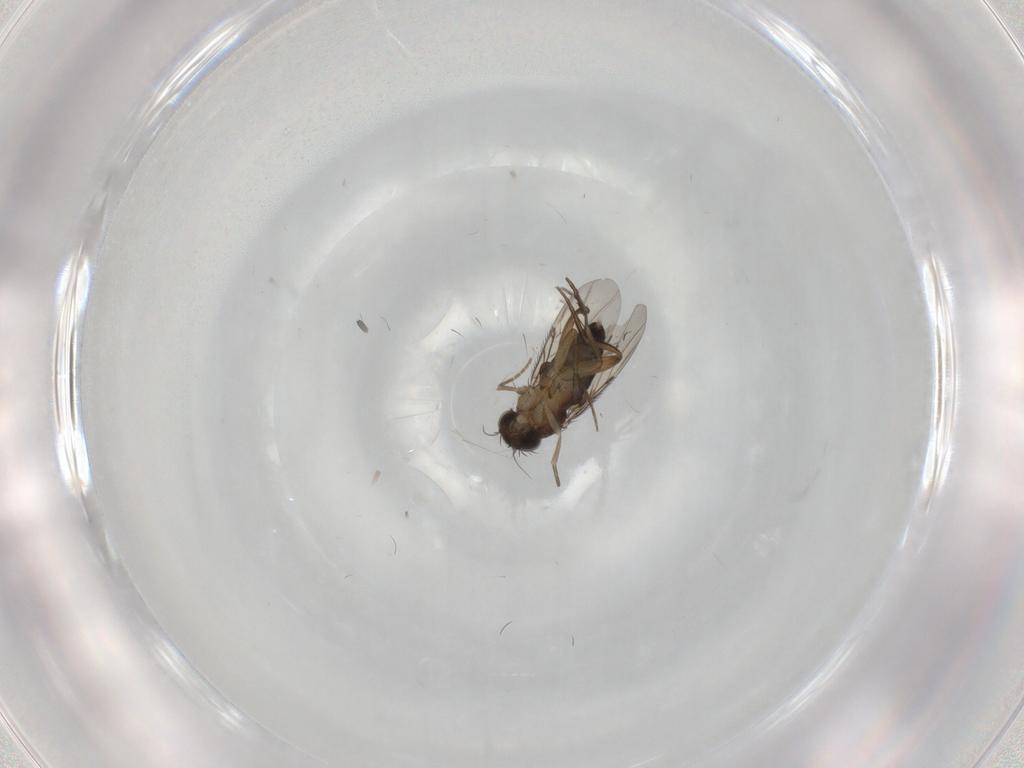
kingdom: Animalia
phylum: Arthropoda
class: Insecta
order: Diptera
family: Phoridae
